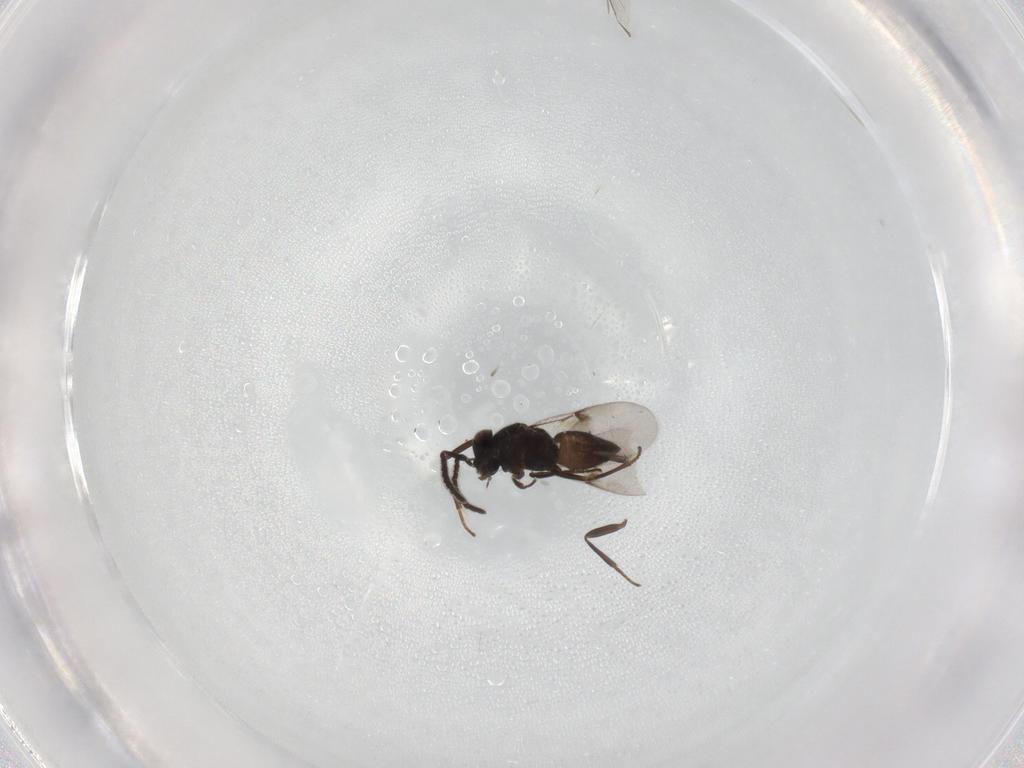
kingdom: Animalia
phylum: Arthropoda
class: Insecta
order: Hymenoptera
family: Encyrtidae
